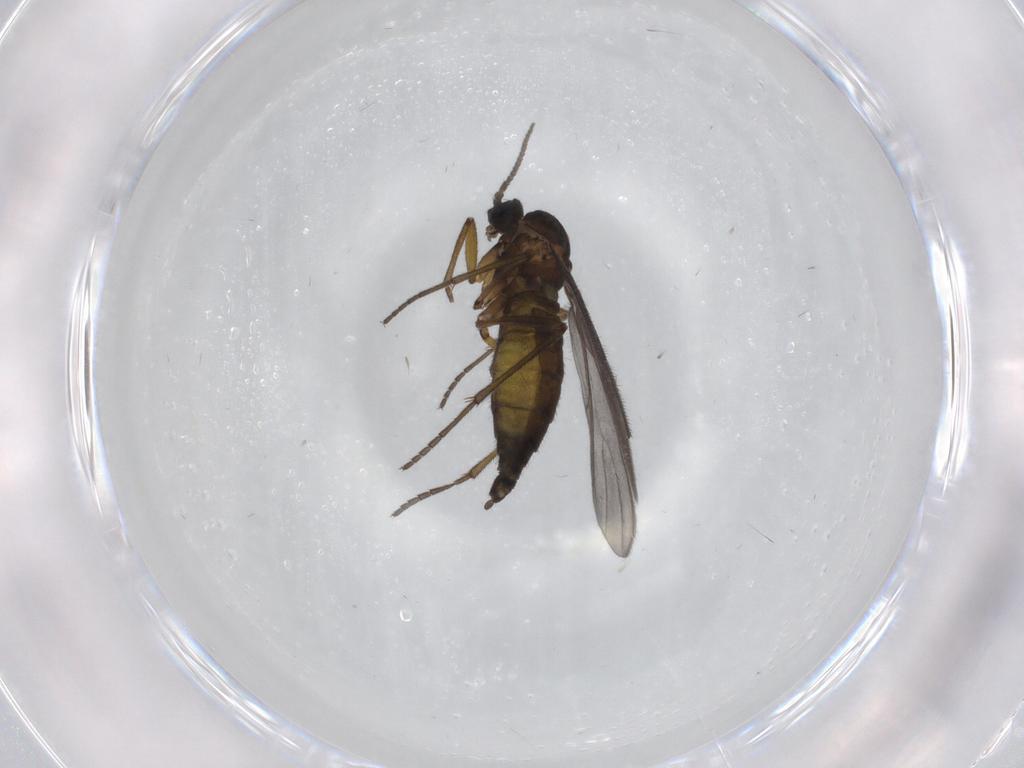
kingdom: Animalia
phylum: Arthropoda
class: Insecta
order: Diptera
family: Sciaridae
